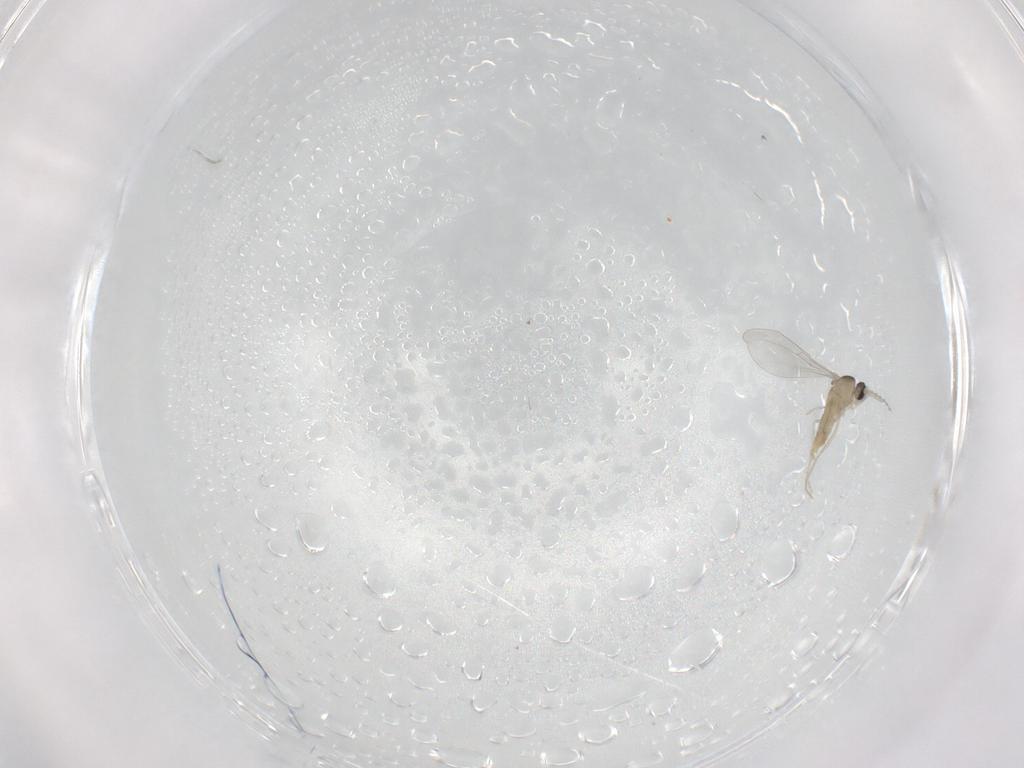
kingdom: Animalia
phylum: Arthropoda
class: Insecta
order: Diptera
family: Cecidomyiidae
